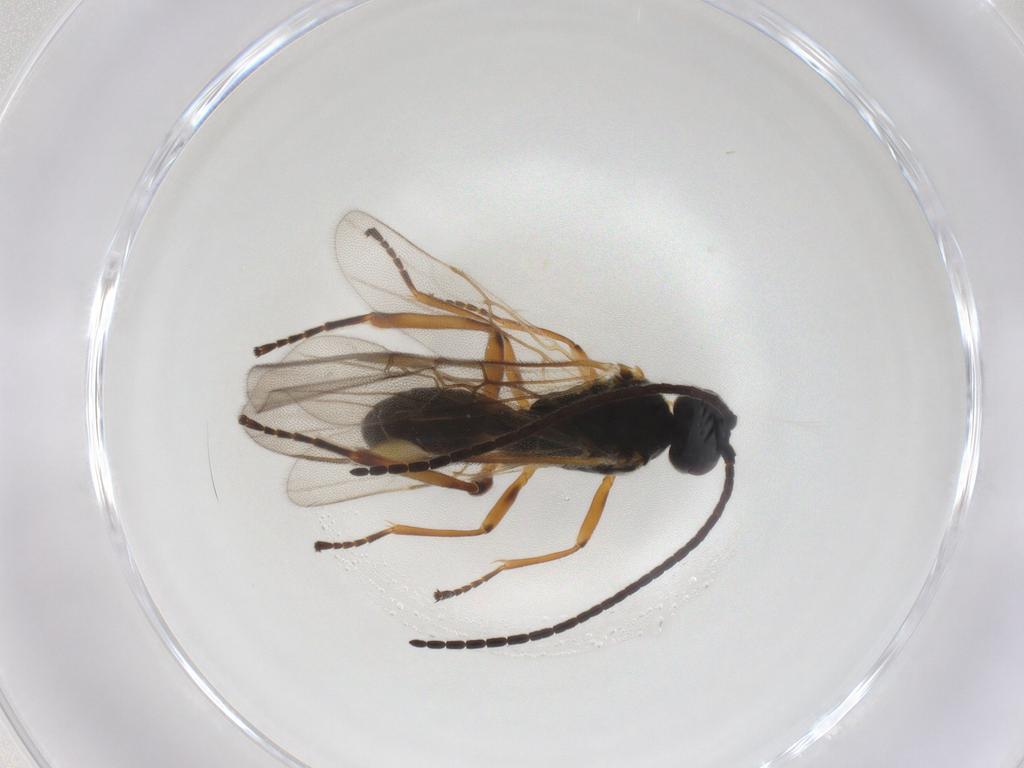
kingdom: Animalia
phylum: Arthropoda
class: Insecta
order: Hymenoptera
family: Braconidae
